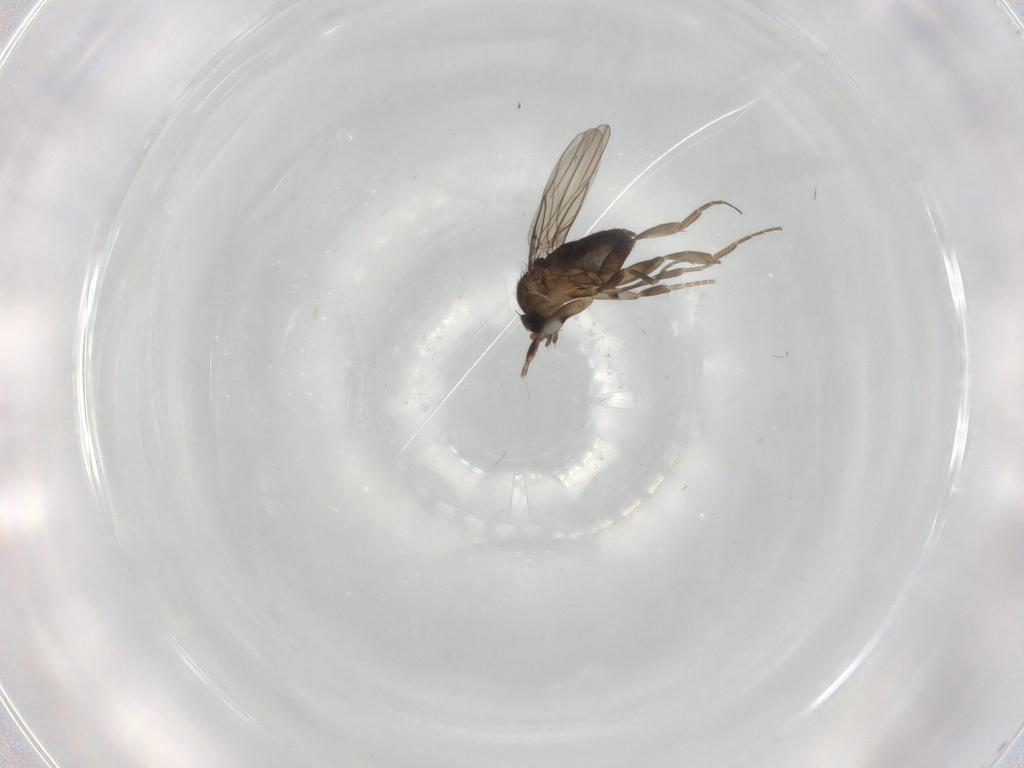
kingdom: Animalia
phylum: Arthropoda
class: Insecta
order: Diptera
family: Phoridae
